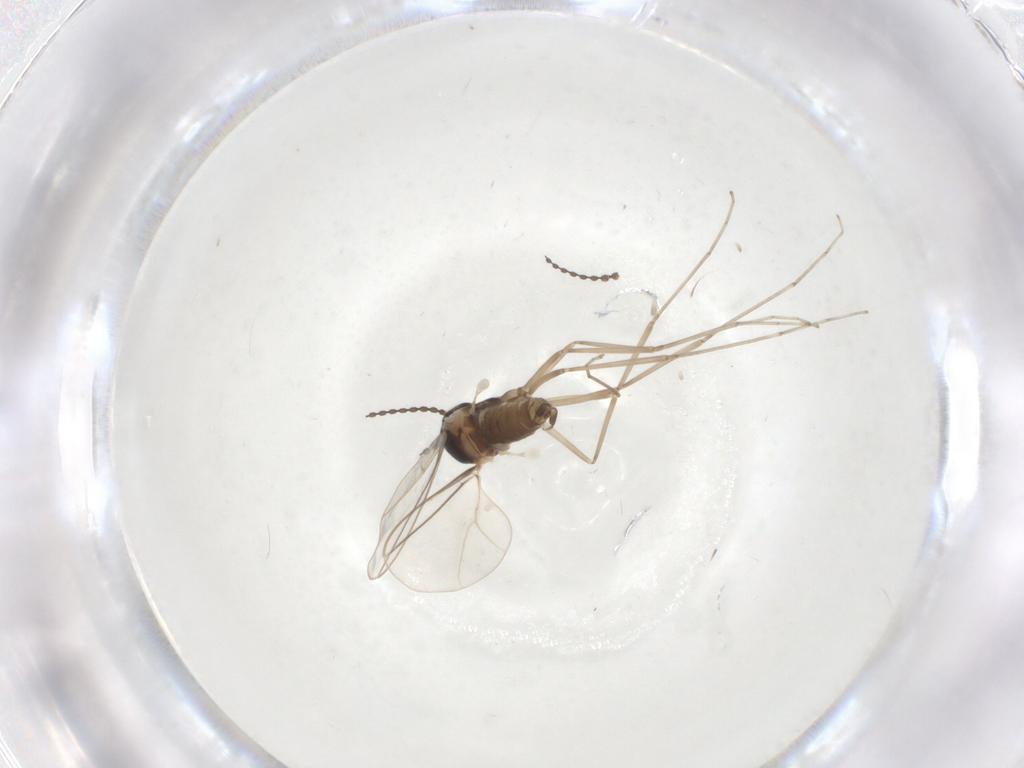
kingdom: Animalia
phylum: Arthropoda
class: Insecta
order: Diptera
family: Cecidomyiidae
